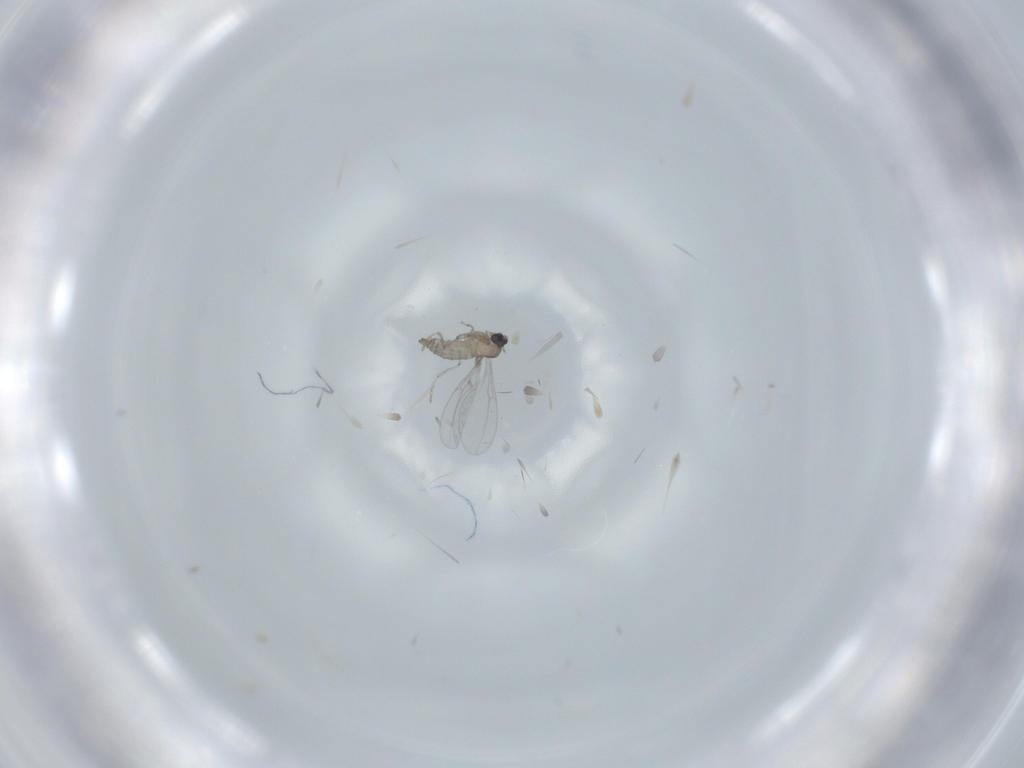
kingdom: Animalia
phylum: Arthropoda
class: Insecta
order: Diptera
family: Cecidomyiidae
